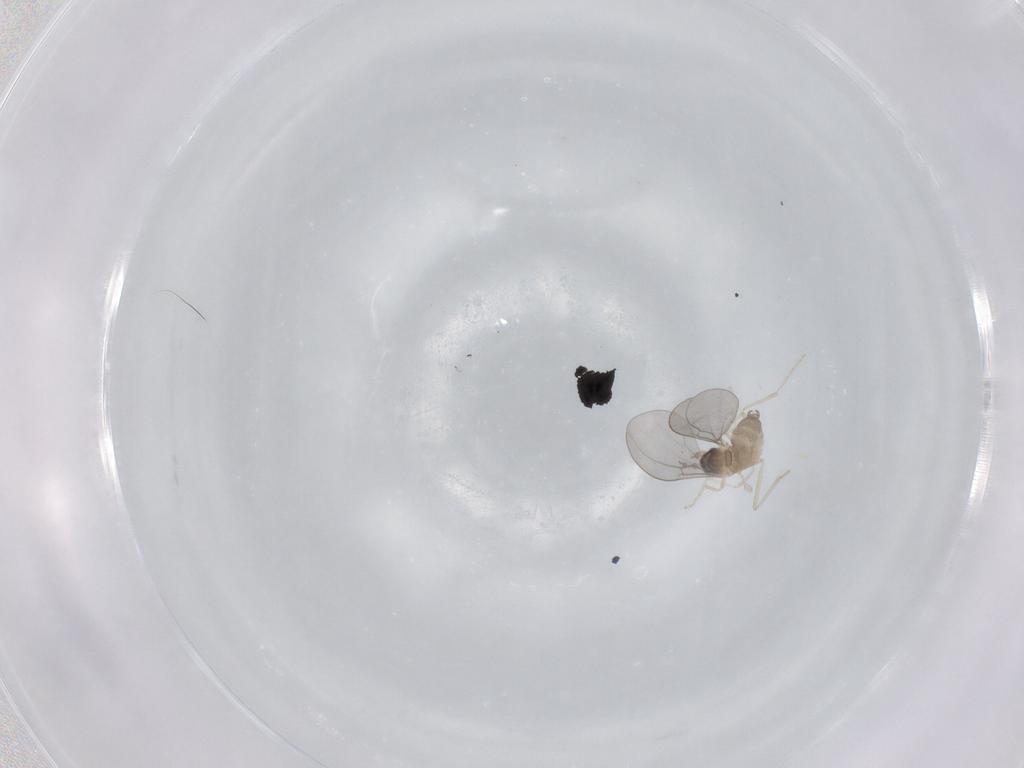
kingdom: Animalia
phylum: Arthropoda
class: Insecta
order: Diptera
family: Cecidomyiidae
